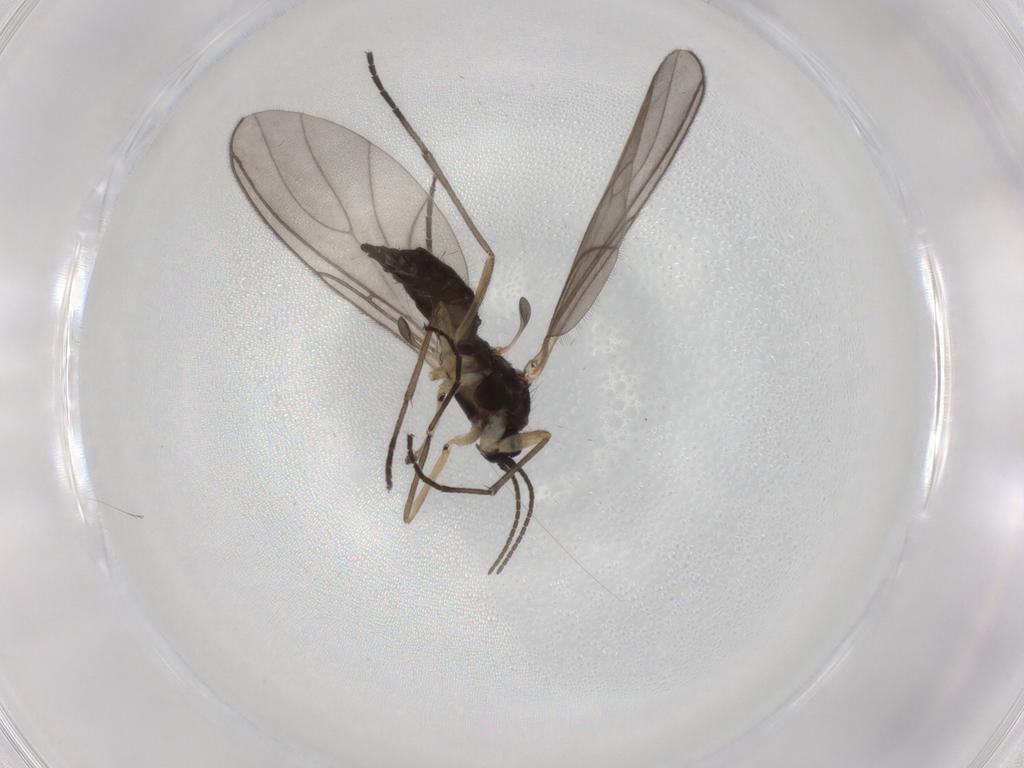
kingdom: Animalia
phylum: Arthropoda
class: Insecta
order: Diptera
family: Sciaridae
